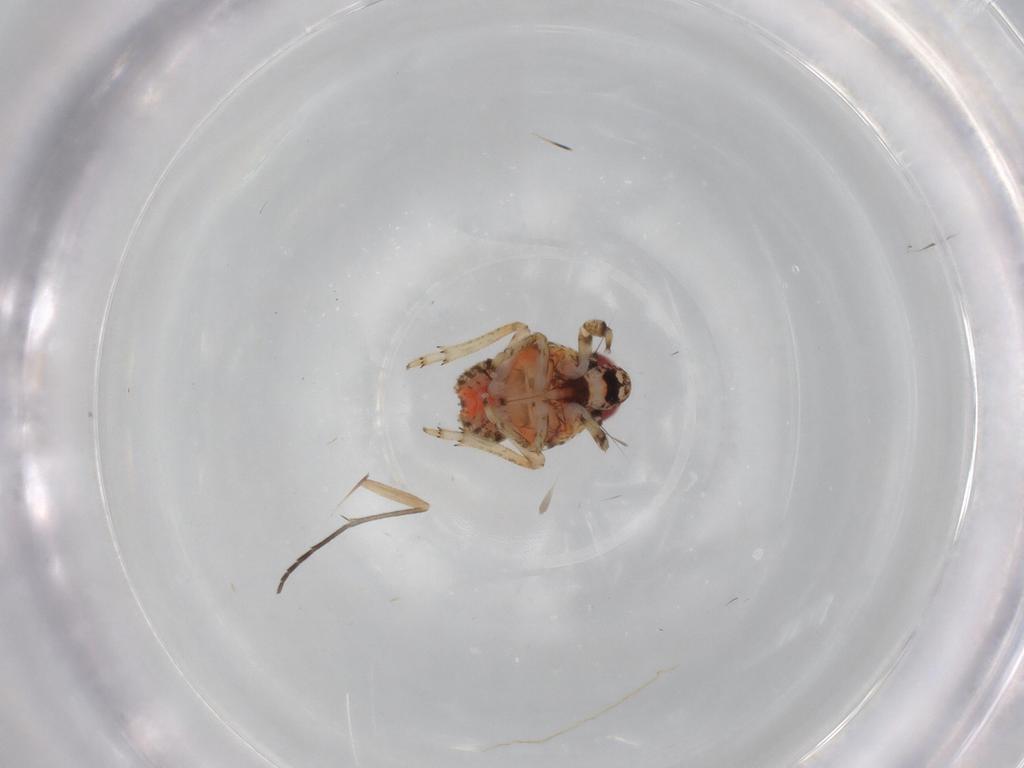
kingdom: Animalia
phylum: Arthropoda
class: Insecta
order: Hemiptera
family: Issidae
